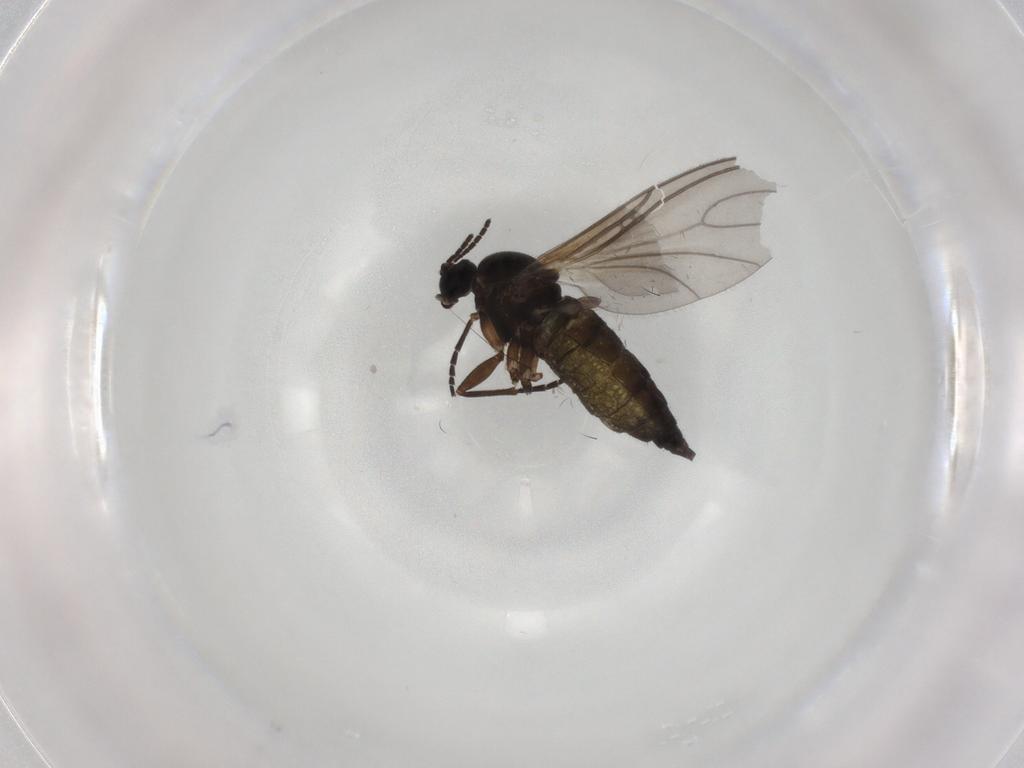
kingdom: Animalia
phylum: Arthropoda
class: Insecta
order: Diptera
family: Sciaridae
